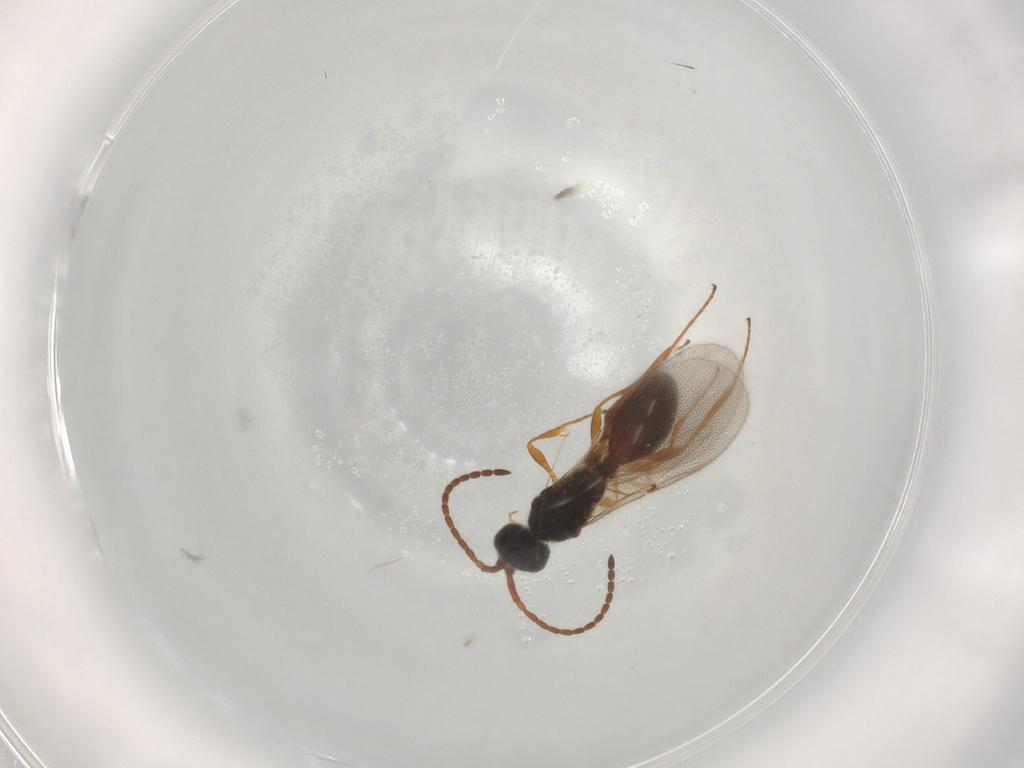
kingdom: Animalia
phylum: Arthropoda
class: Insecta
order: Hymenoptera
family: Diapriidae
